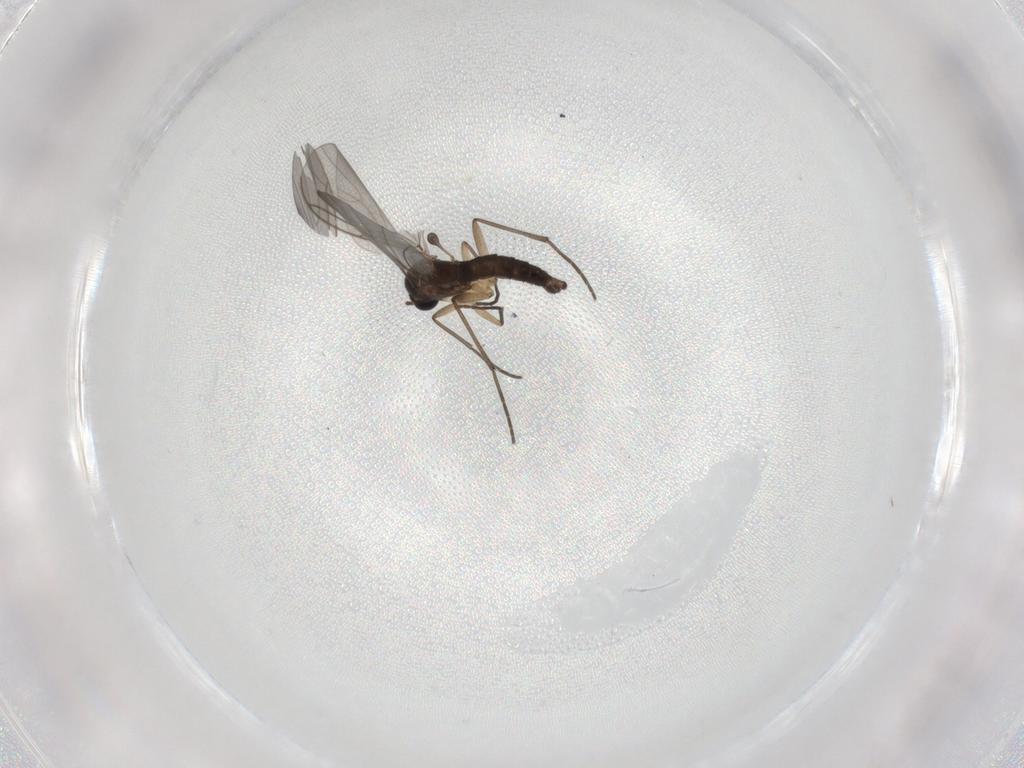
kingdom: Animalia
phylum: Arthropoda
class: Insecta
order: Diptera
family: Sciaridae
